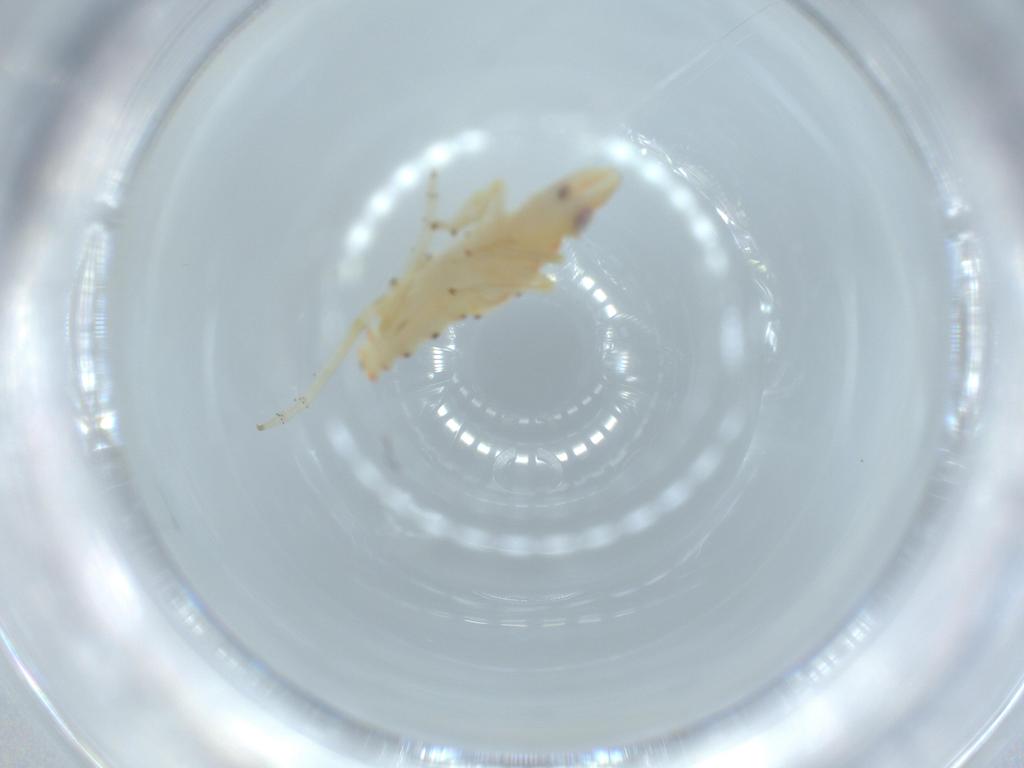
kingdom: Animalia
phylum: Arthropoda
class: Insecta
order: Hemiptera
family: Tropiduchidae
